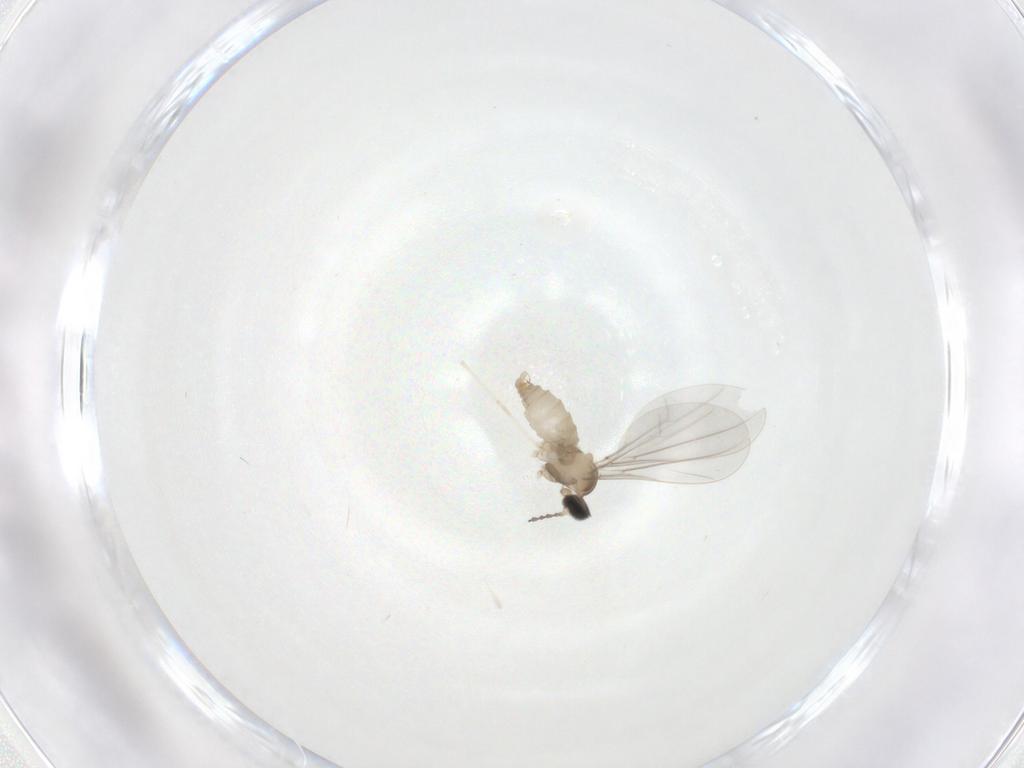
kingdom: Animalia
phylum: Arthropoda
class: Insecta
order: Diptera
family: Cecidomyiidae
